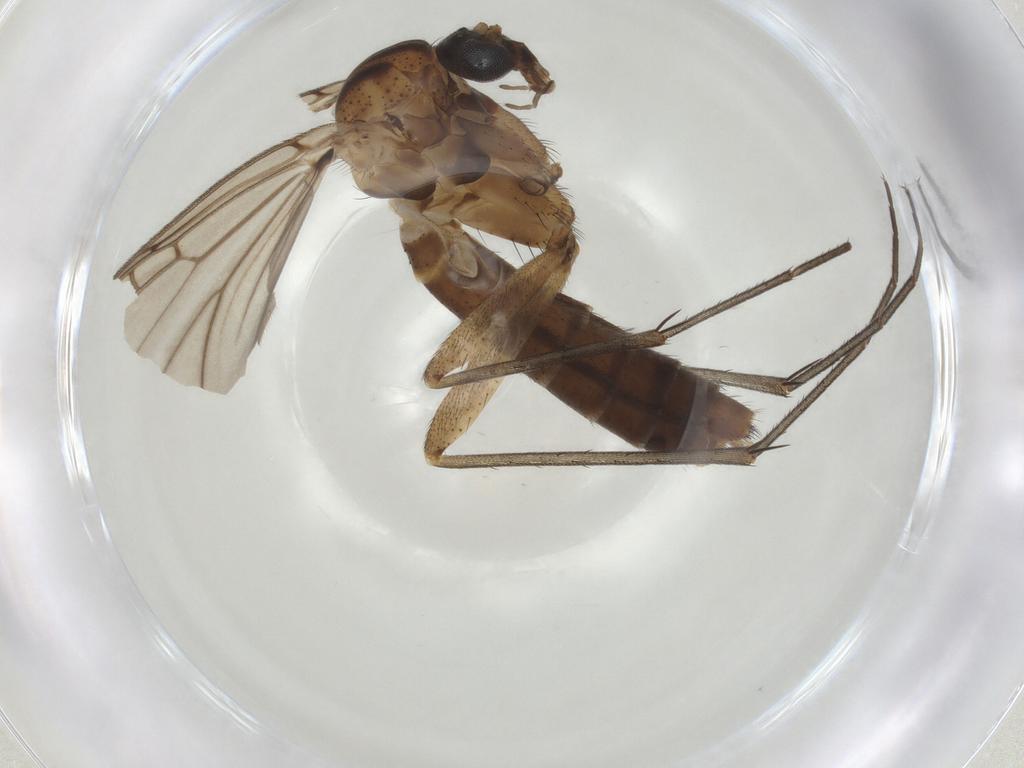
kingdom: Animalia
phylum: Arthropoda
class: Insecta
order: Diptera
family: Mycetophilidae
